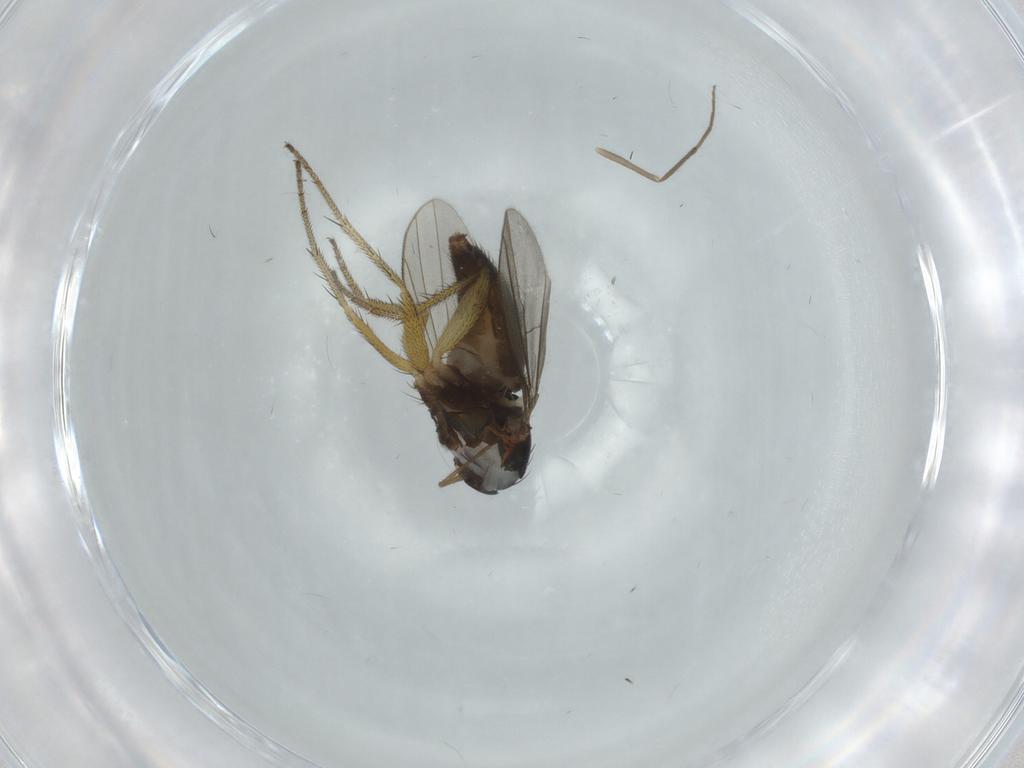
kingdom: Animalia
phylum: Arthropoda
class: Insecta
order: Diptera
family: Dolichopodidae
